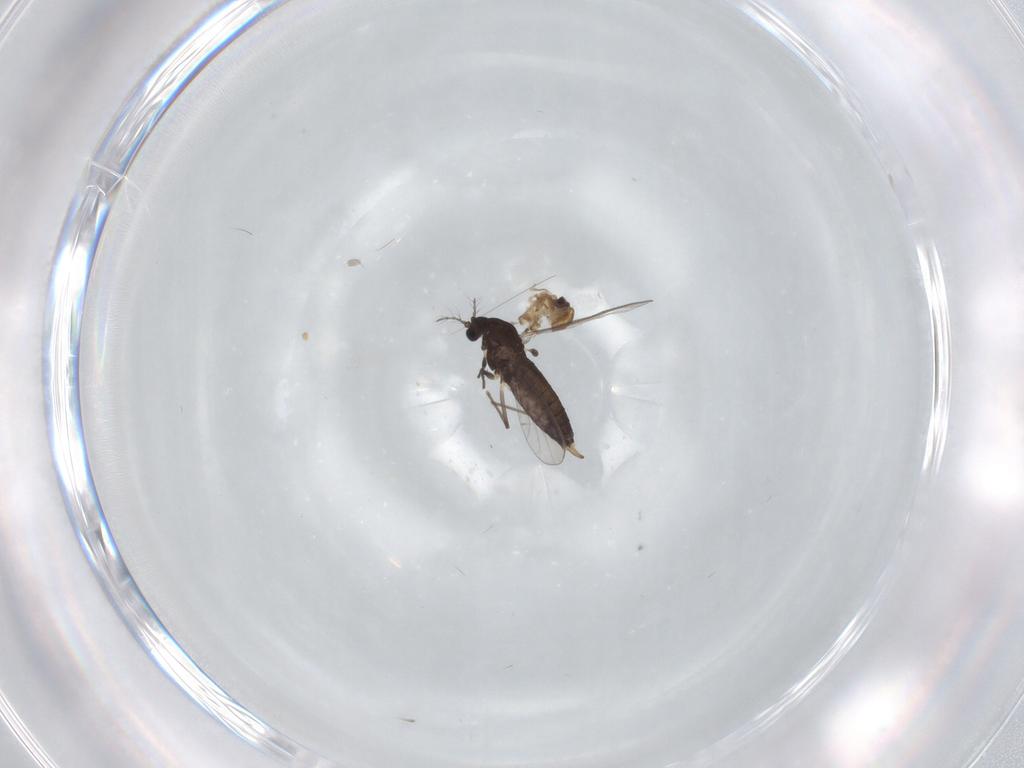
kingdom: Animalia
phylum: Arthropoda
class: Insecta
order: Diptera
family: Chironomidae
